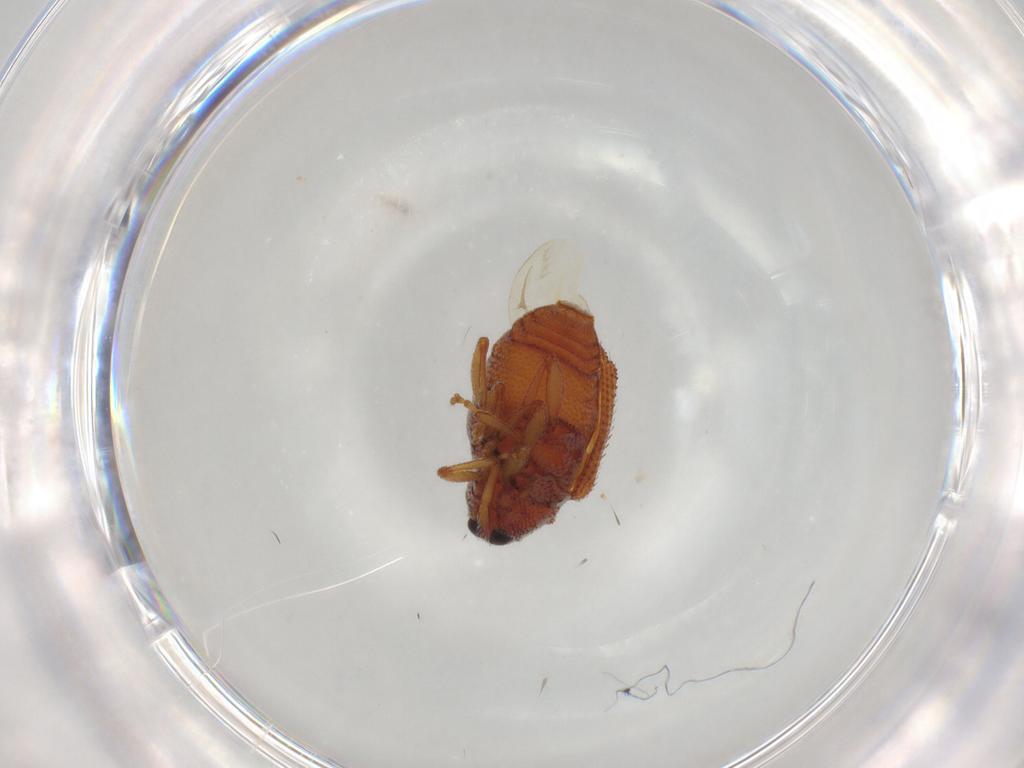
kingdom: Animalia
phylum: Arthropoda
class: Insecta
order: Coleoptera
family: Curculionidae
